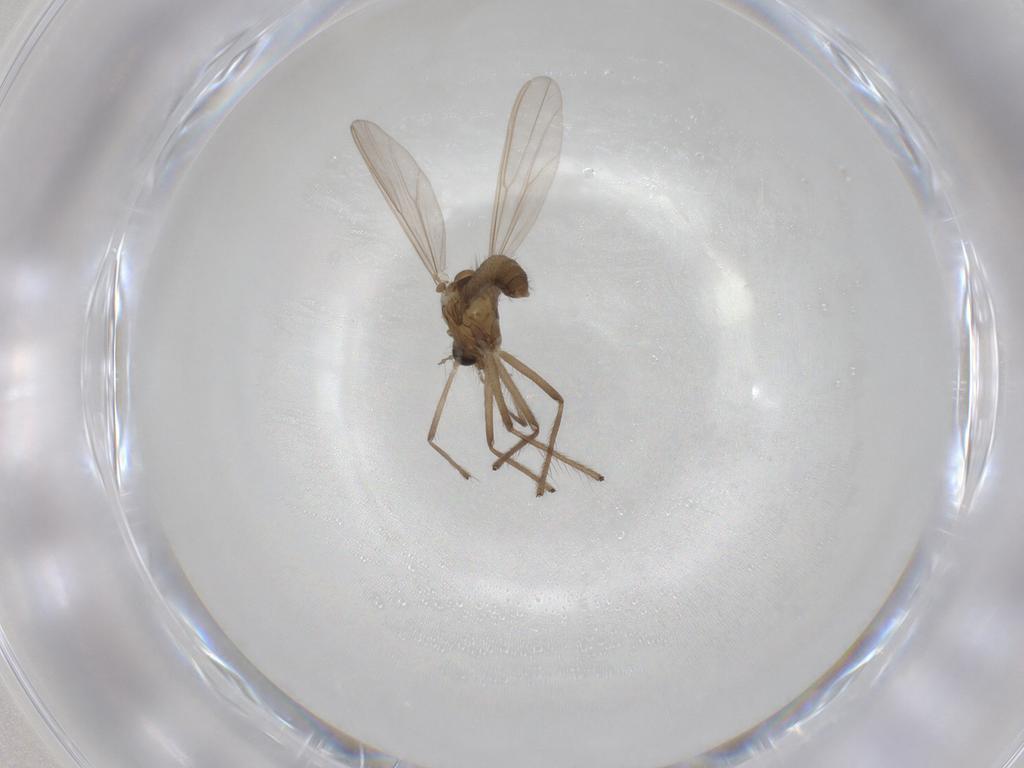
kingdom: Animalia
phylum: Arthropoda
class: Insecta
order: Diptera
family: Chironomidae
